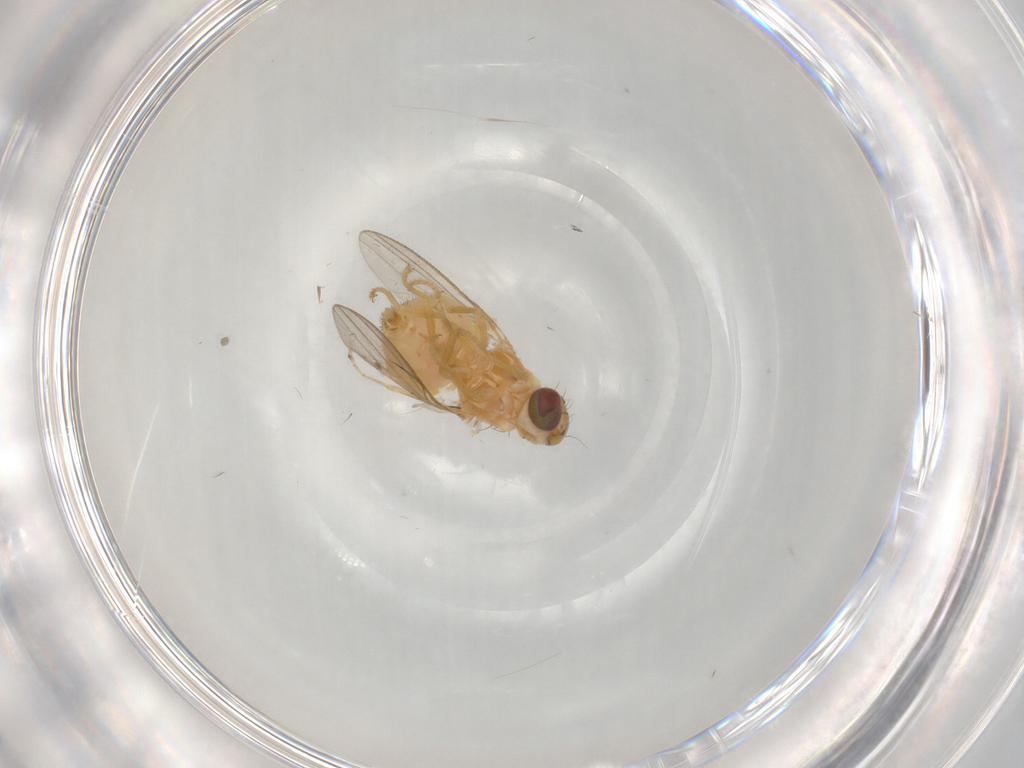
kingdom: Animalia
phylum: Arthropoda
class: Insecta
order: Diptera
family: Chyromyidae
